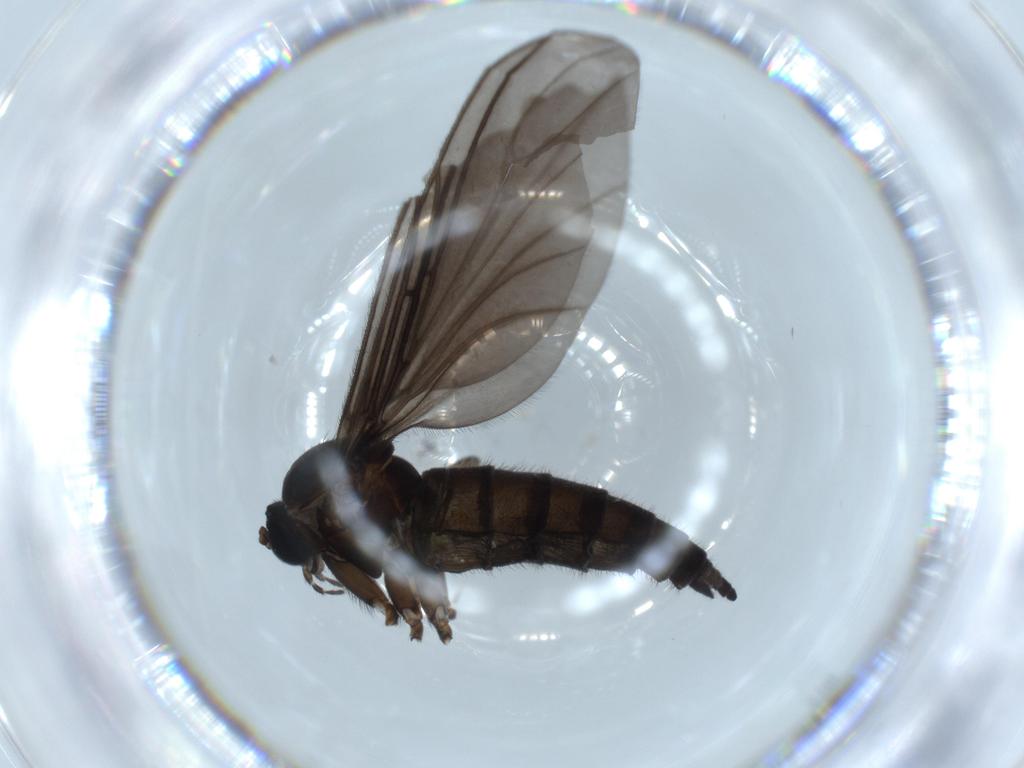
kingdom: Animalia
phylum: Arthropoda
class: Insecta
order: Diptera
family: Sciaridae
